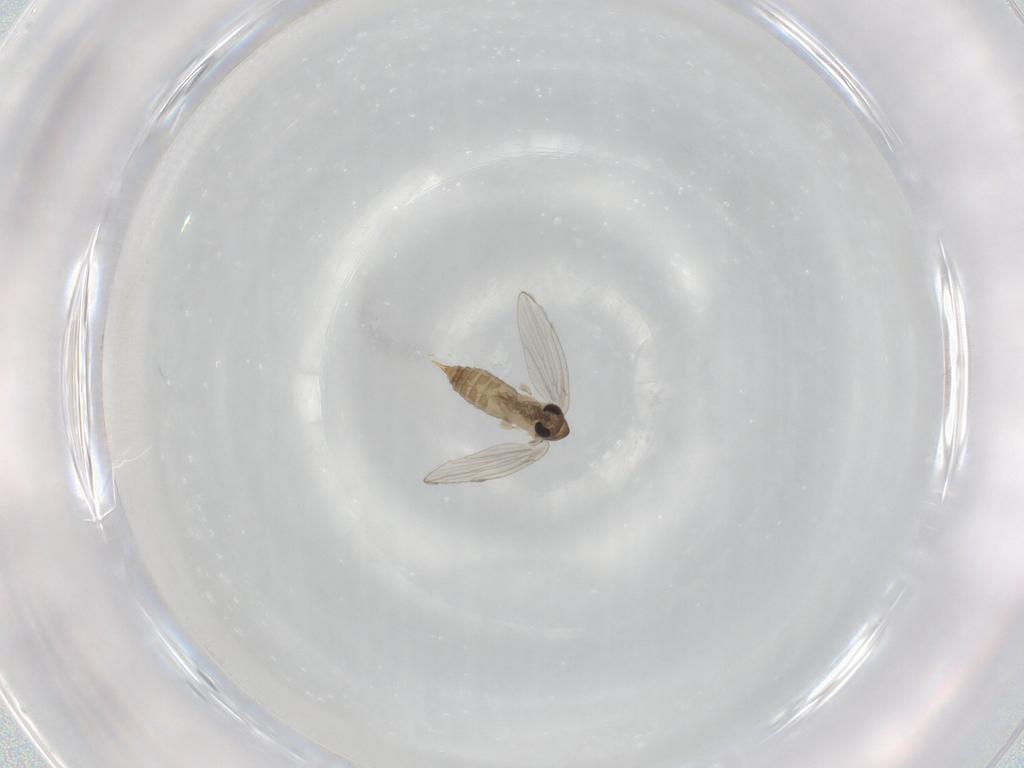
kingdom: Animalia
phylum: Arthropoda
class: Insecta
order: Diptera
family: Psychodidae
